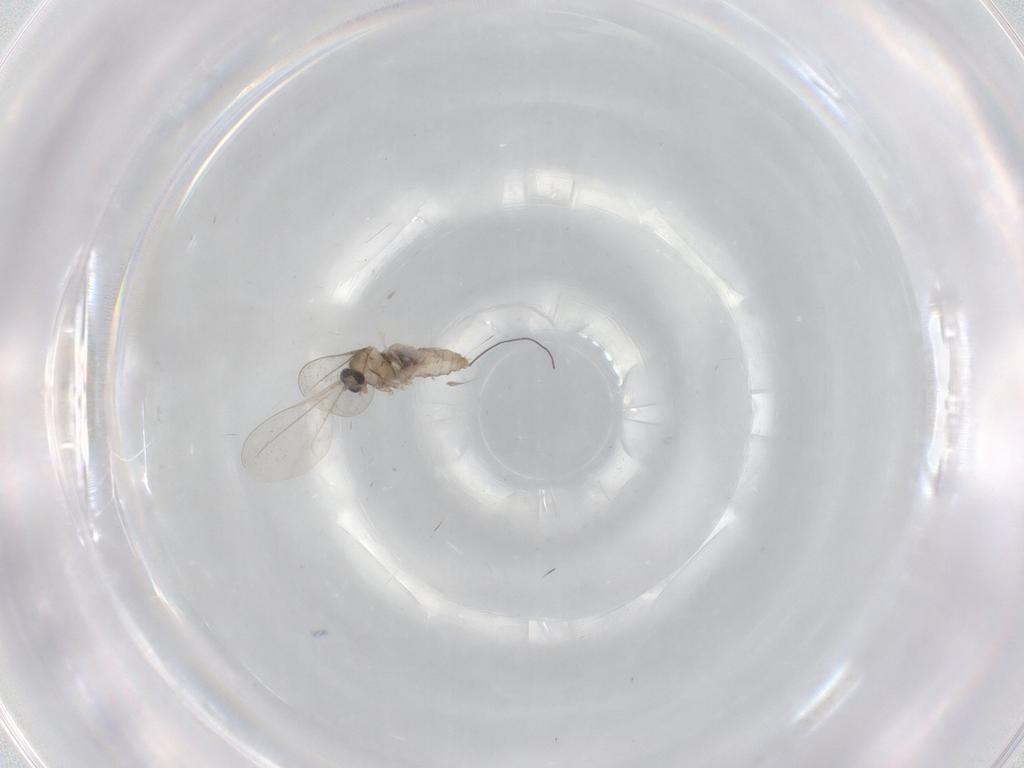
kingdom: Animalia
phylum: Arthropoda
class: Insecta
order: Diptera
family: Cecidomyiidae
